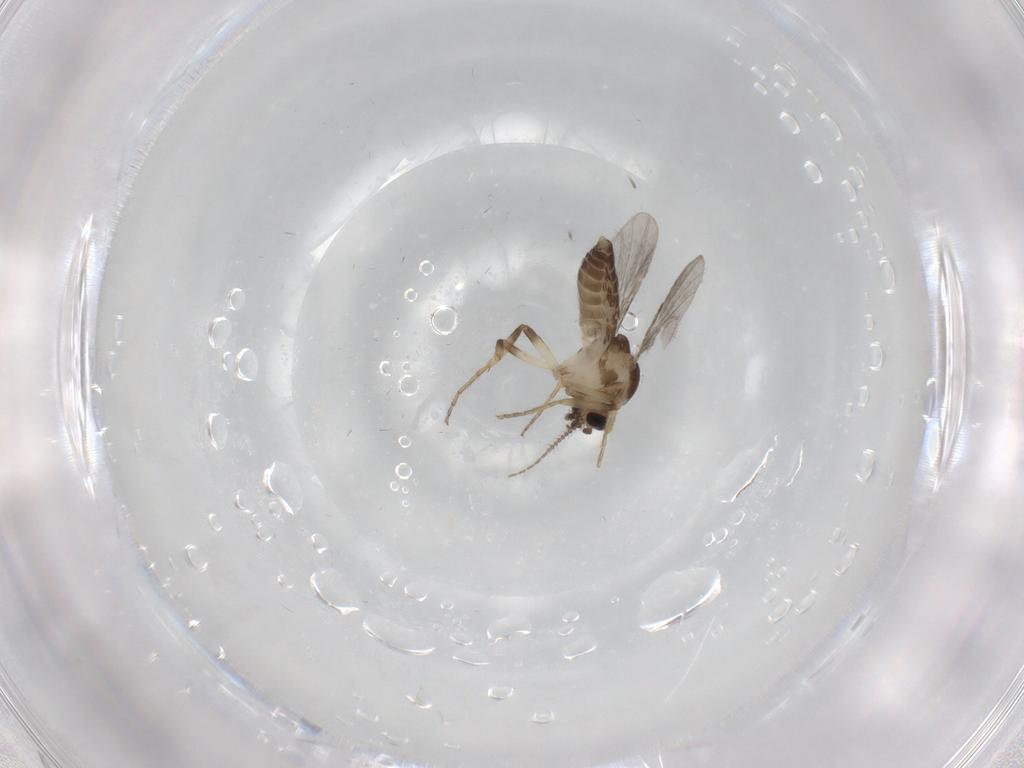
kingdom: Animalia
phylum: Arthropoda
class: Insecta
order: Diptera
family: Ceratopogonidae
